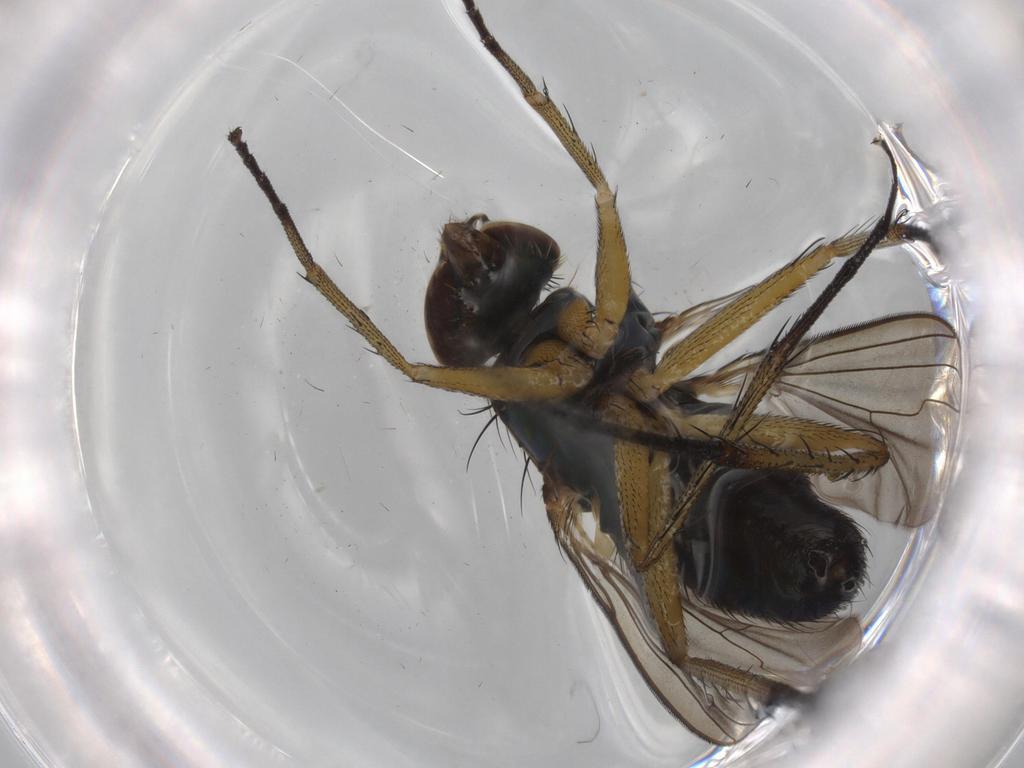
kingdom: Animalia
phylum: Arthropoda
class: Insecta
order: Diptera
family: Dolichopodidae
